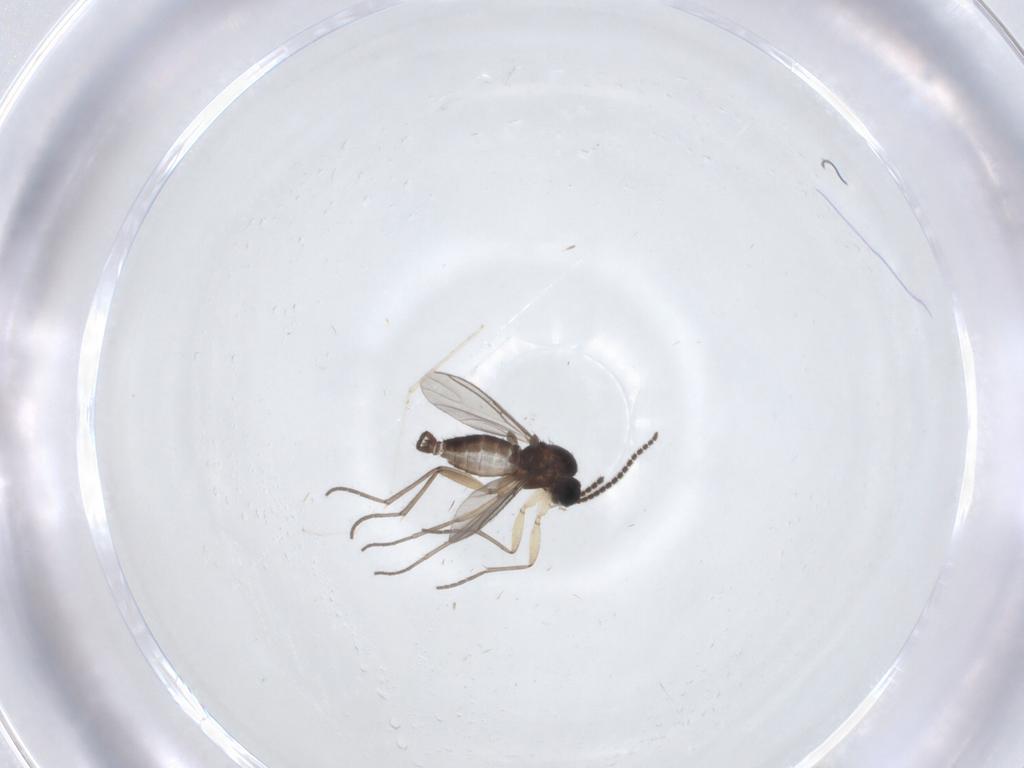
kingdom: Animalia
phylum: Arthropoda
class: Insecta
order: Diptera
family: Sciaridae
